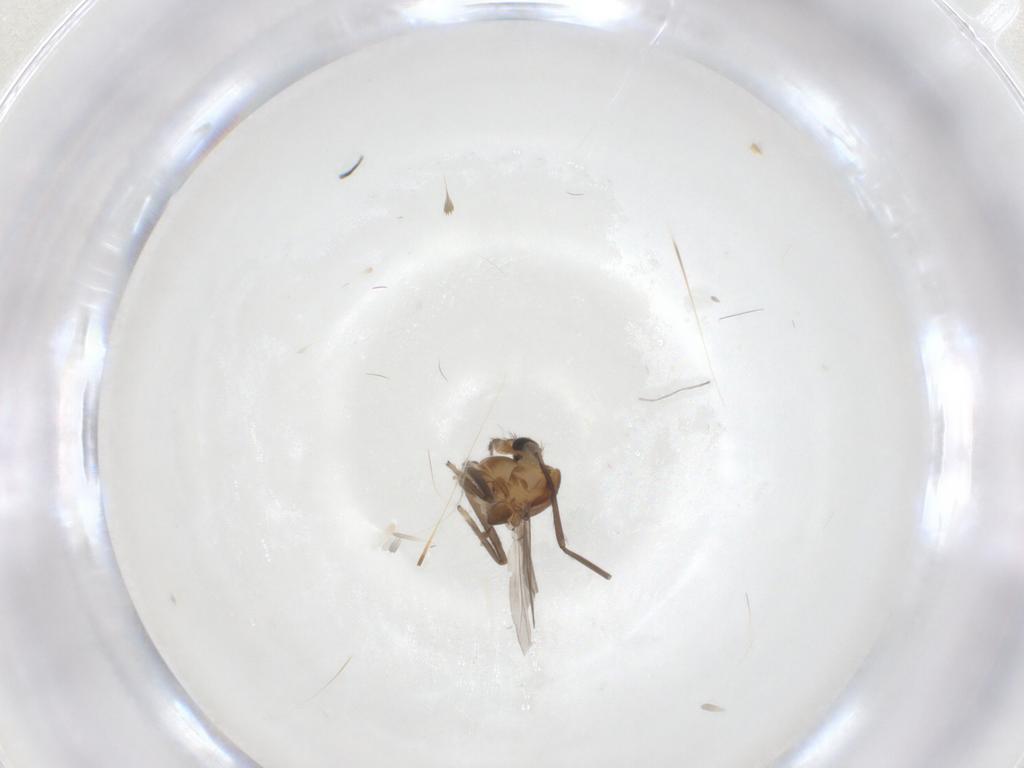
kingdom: Animalia
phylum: Arthropoda
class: Insecta
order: Diptera
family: Chironomidae
